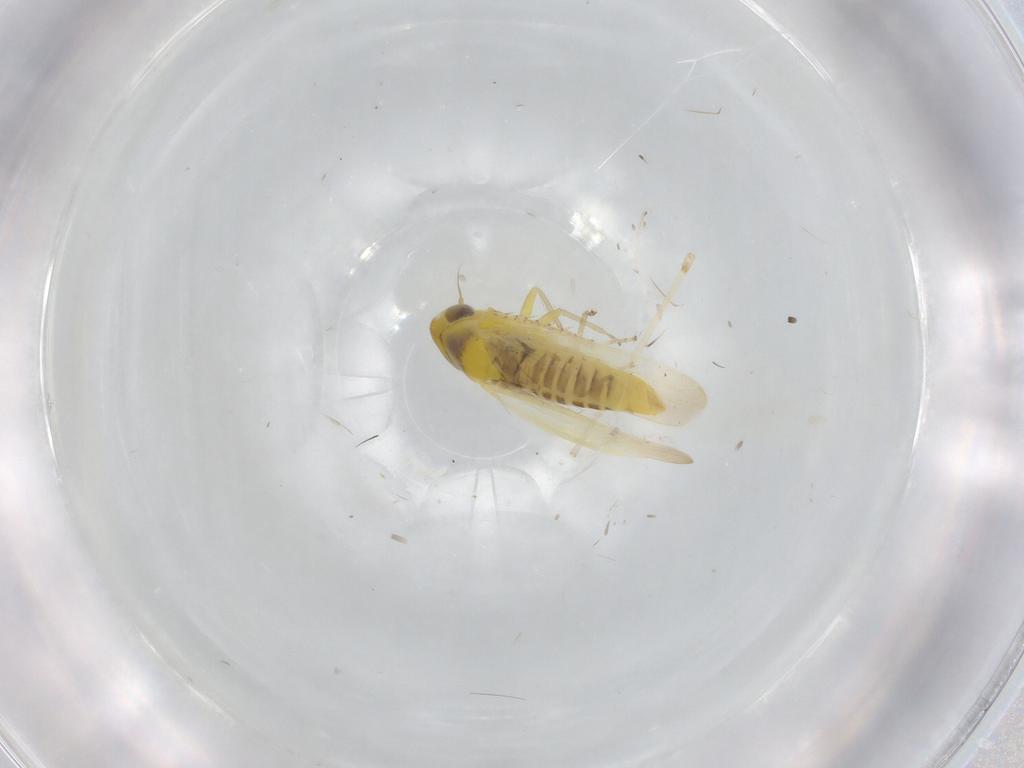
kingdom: Animalia
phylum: Arthropoda
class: Insecta
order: Hemiptera
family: Cicadellidae
